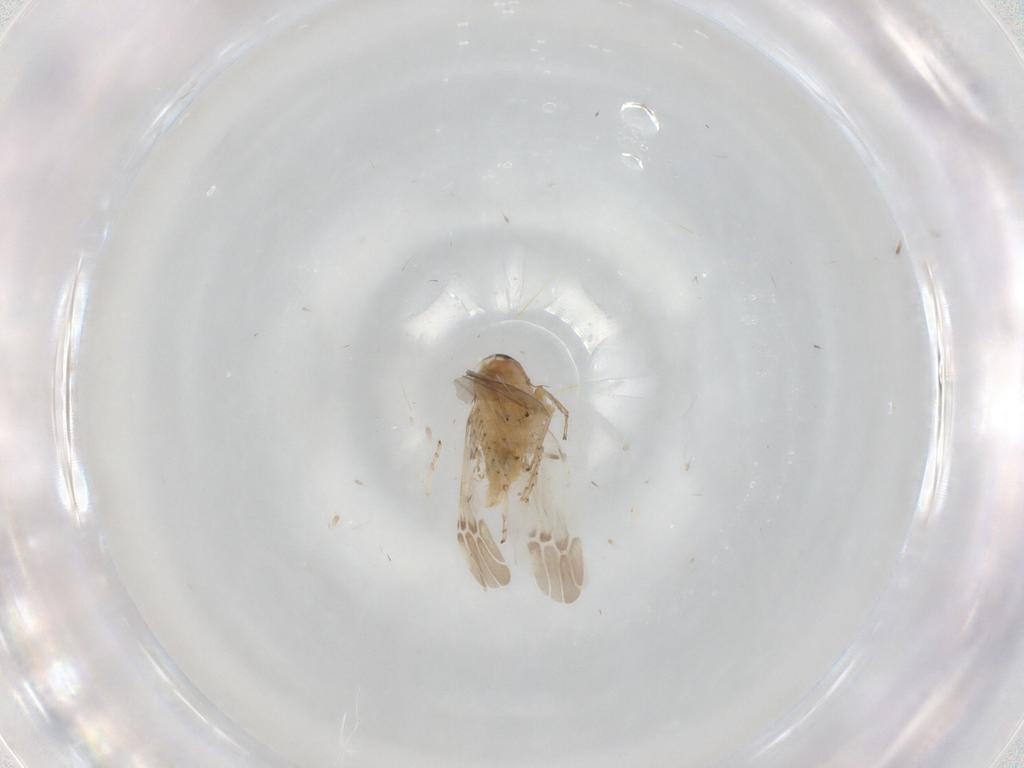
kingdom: Animalia
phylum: Arthropoda
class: Insecta
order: Hemiptera
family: Cicadellidae
